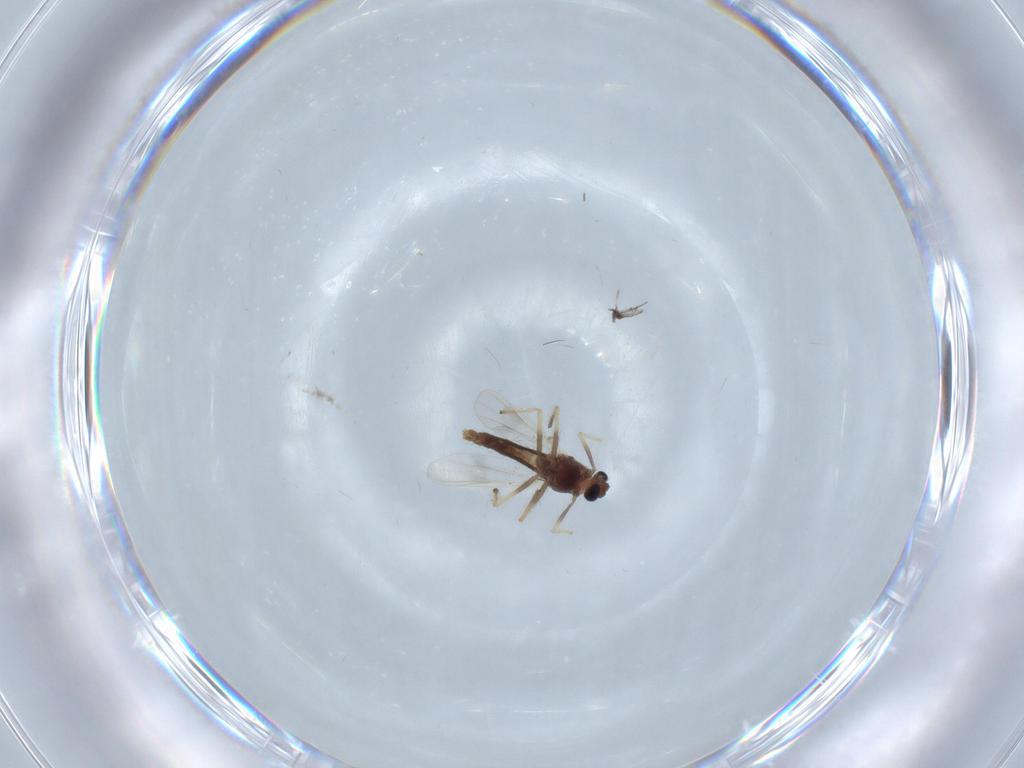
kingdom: Animalia
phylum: Arthropoda
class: Insecta
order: Diptera
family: Chironomidae
